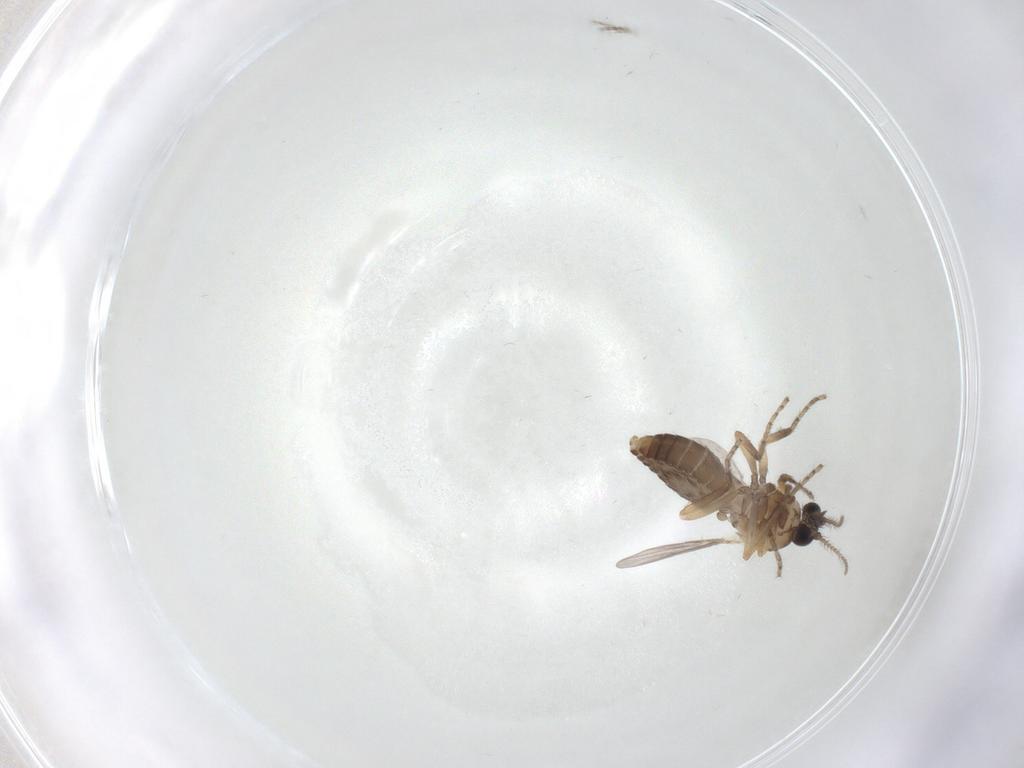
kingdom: Animalia
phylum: Arthropoda
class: Insecta
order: Diptera
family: Ceratopogonidae
